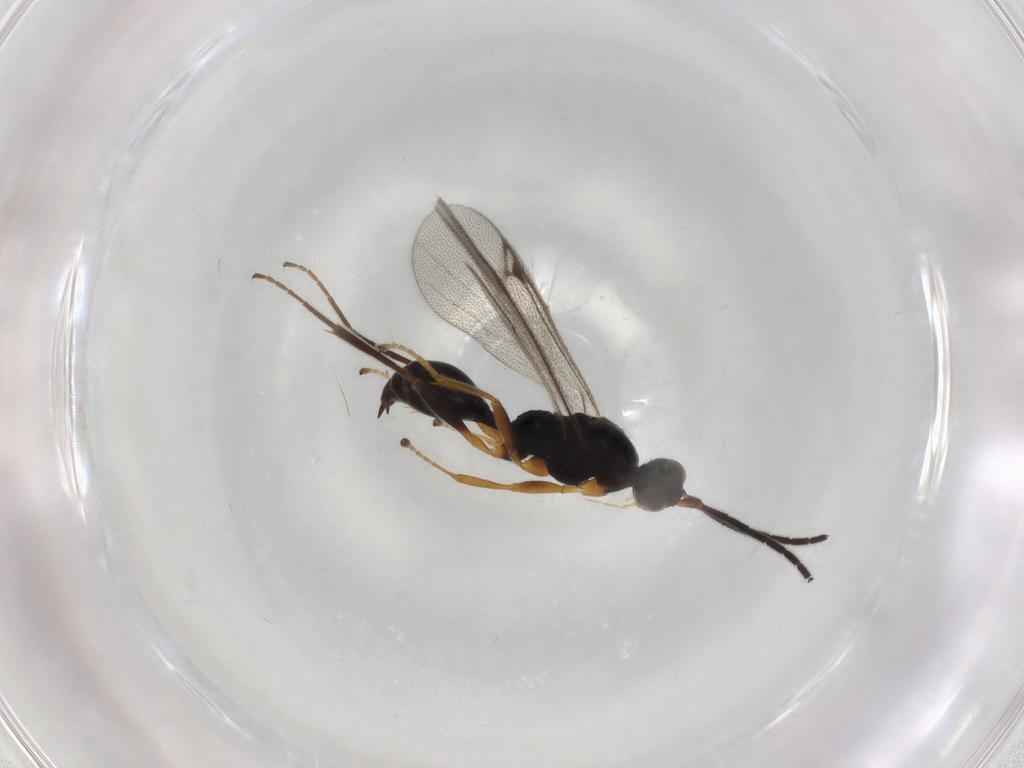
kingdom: Animalia
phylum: Arthropoda
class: Insecta
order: Hymenoptera
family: Proctotrupidae
